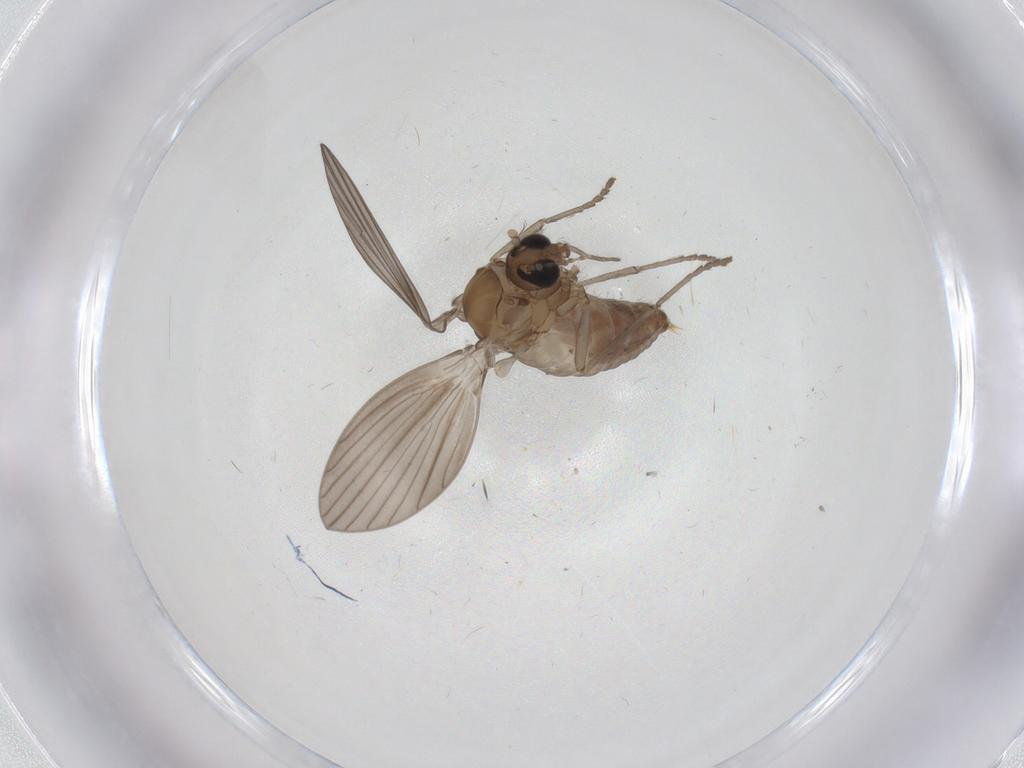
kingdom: Animalia
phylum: Arthropoda
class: Insecta
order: Diptera
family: Psychodidae
